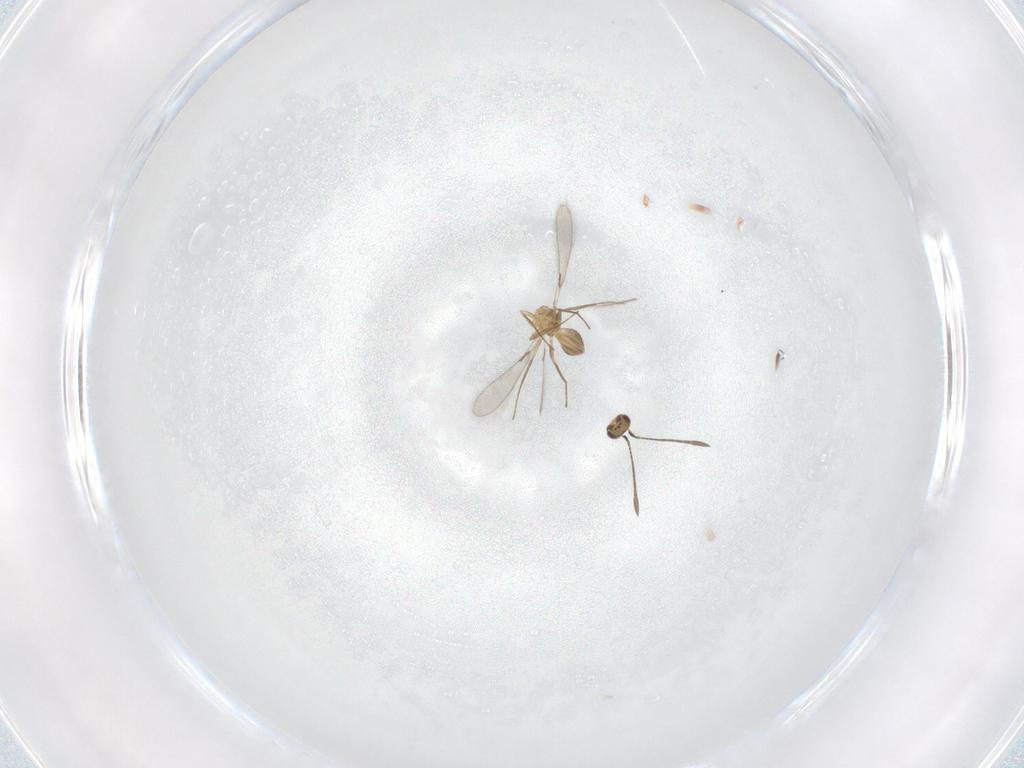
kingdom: Animalia
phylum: Arthropoda
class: Insecta
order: Hymenoptera
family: Mymaridae
